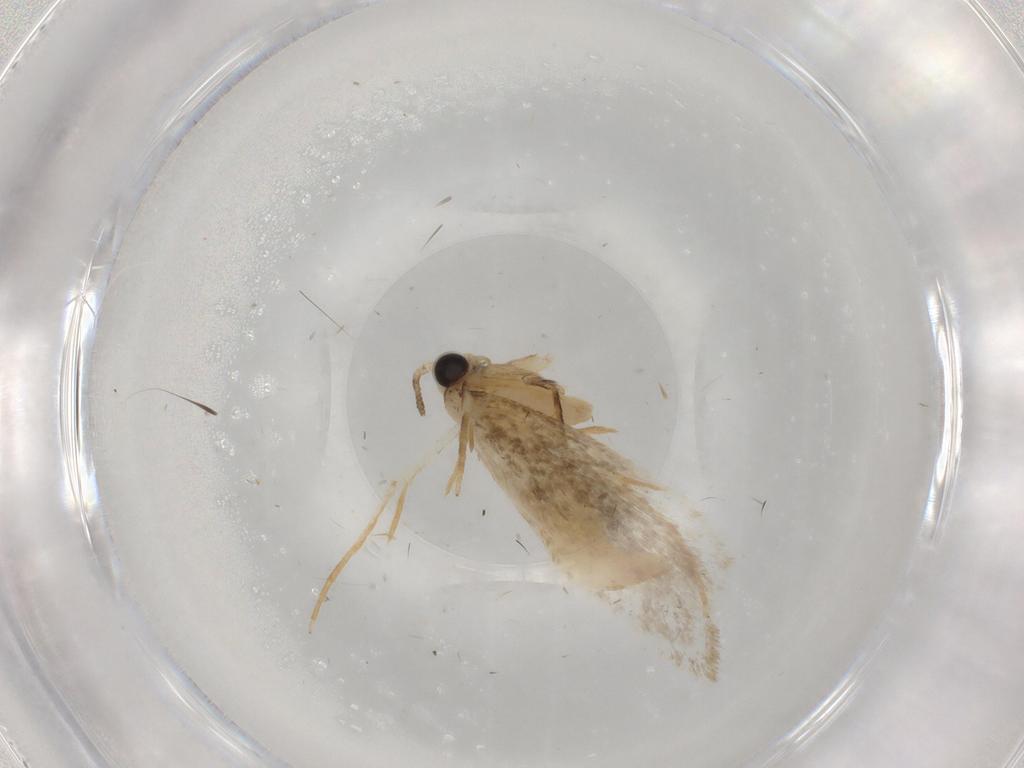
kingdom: Animalia
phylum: Arthropoda
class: Insecta
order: Lepidoptera
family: Tineidae
